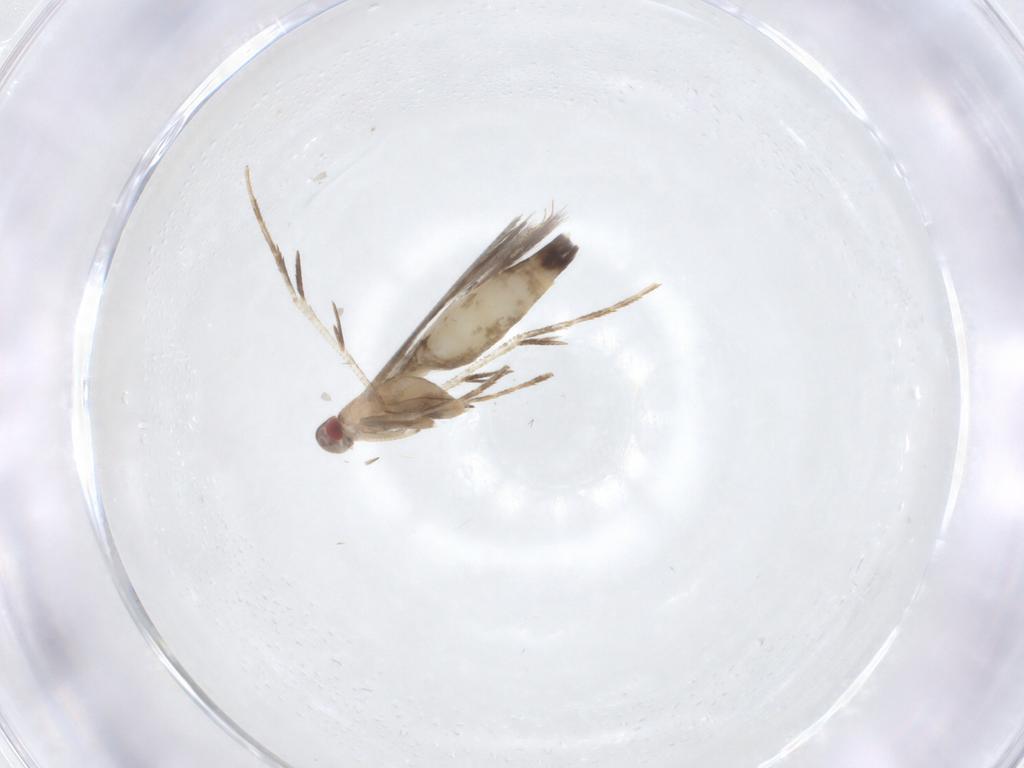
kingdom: Animalia
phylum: Arthropoda
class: Insecta
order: Lepidoptera
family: Cosmopterigidae
